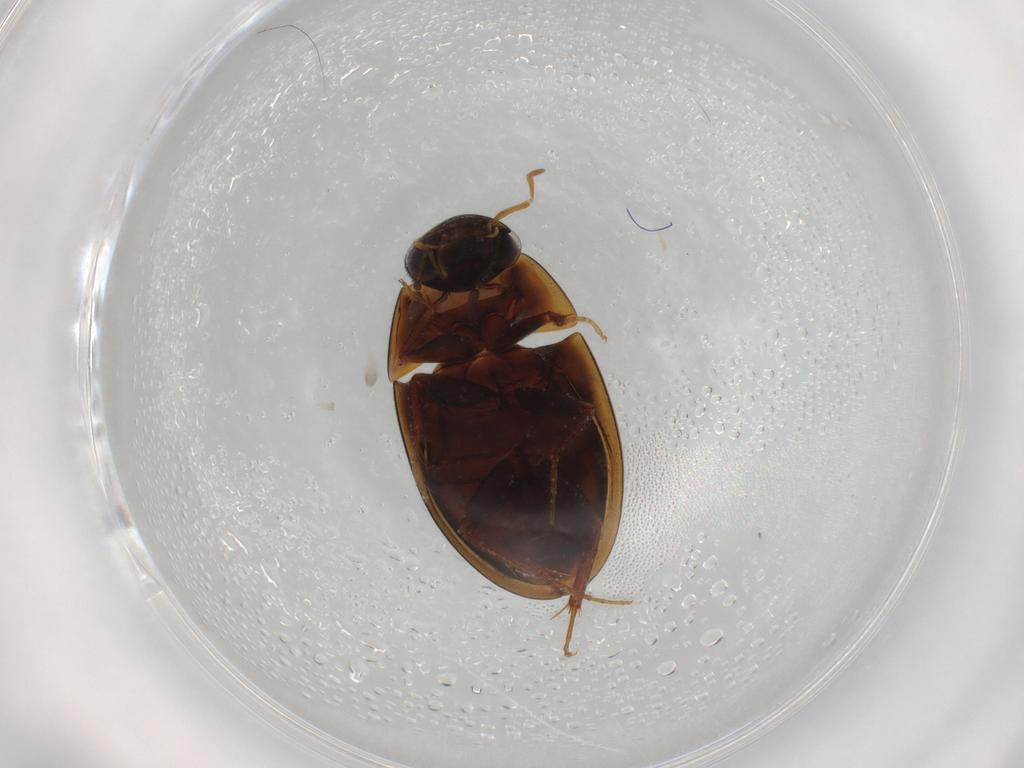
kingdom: Animalia
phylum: Arthropoda
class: Insecta
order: Coleoptera
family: Hydrophilidae
